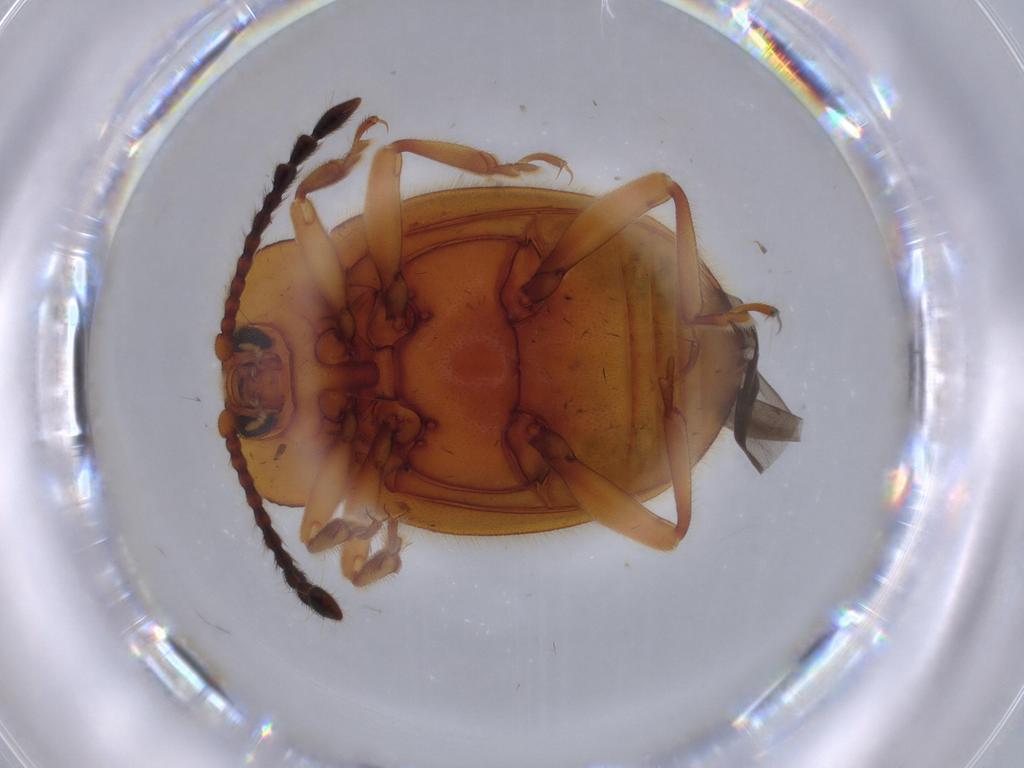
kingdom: Animalia
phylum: Arthropoda
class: Insecta
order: Coleoptera
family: Endomychidae
